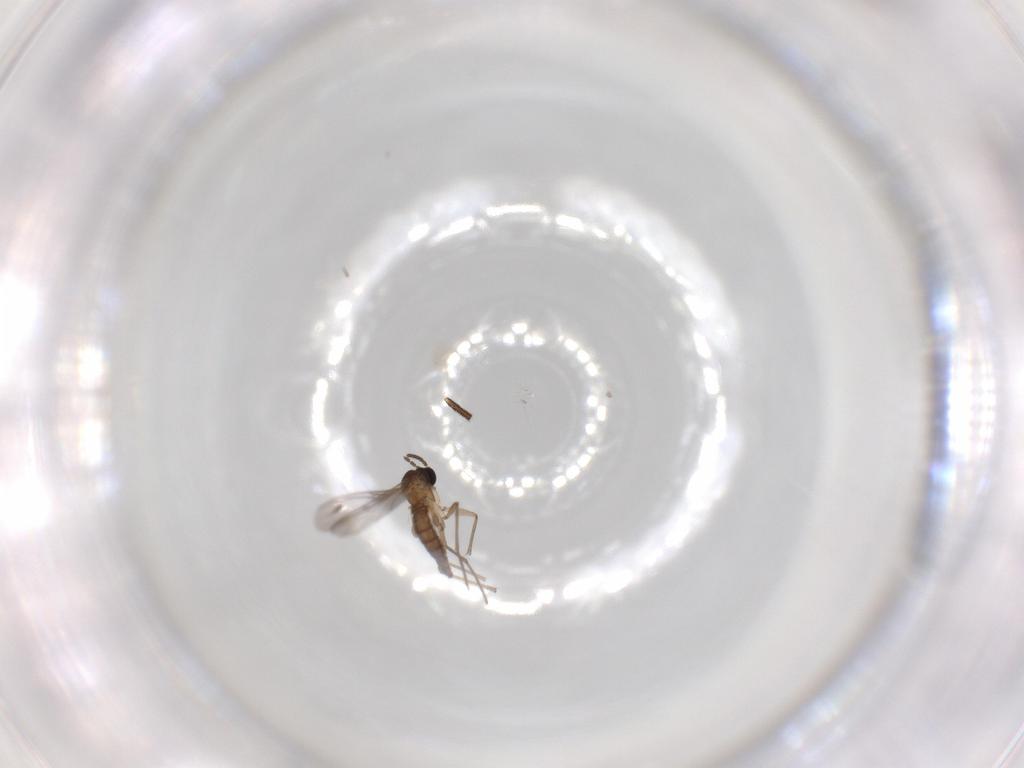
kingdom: Animalia
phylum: Arthropoda
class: Insecta
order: Diptera
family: Sciaridae
